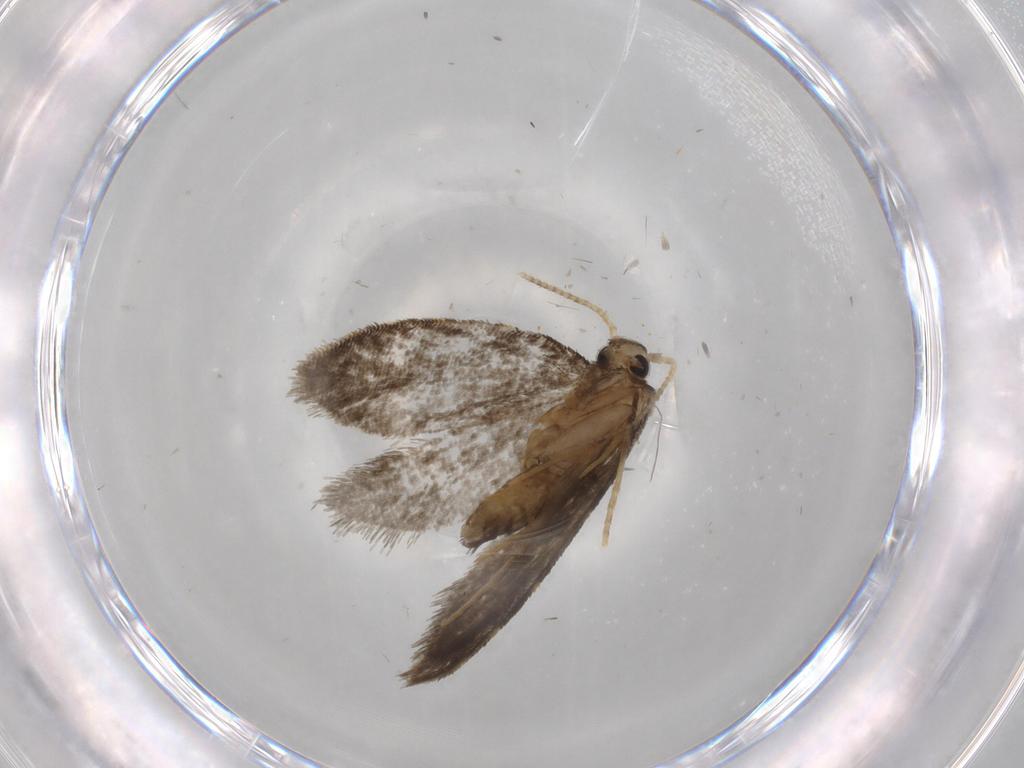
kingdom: Animalia
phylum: Arthropoda
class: Insecta
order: Lepidoptera
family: Psychidae
